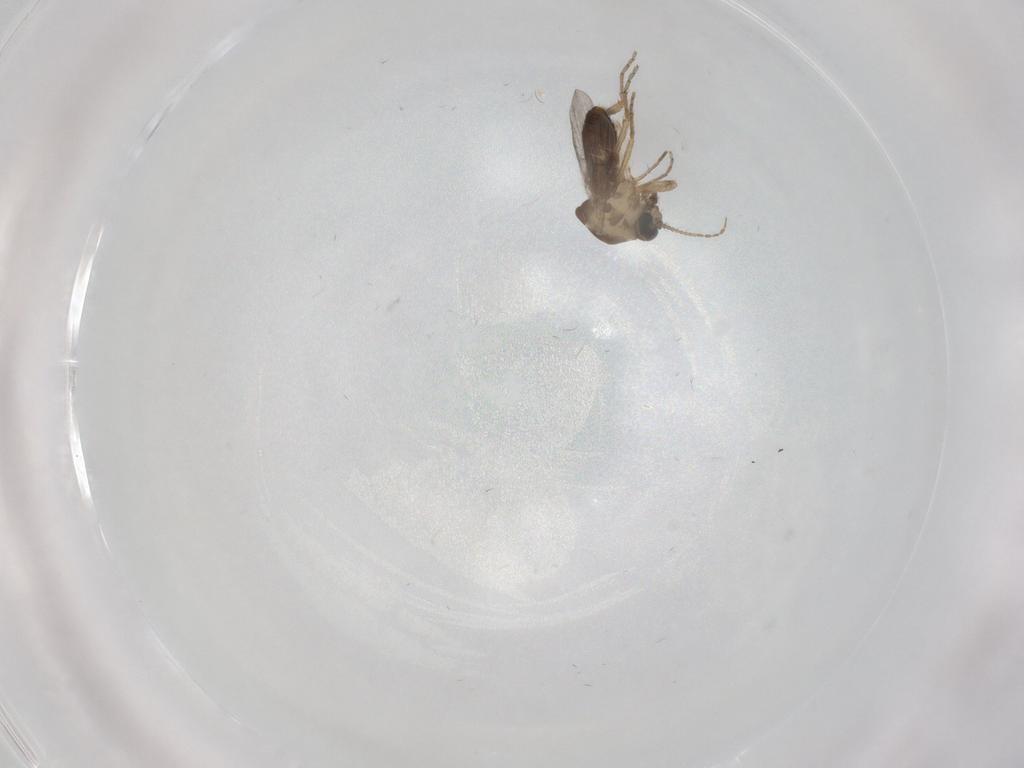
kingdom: Animalia
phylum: Arthropoda
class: Insecta
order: Diptera
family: Ceratopogonidae
